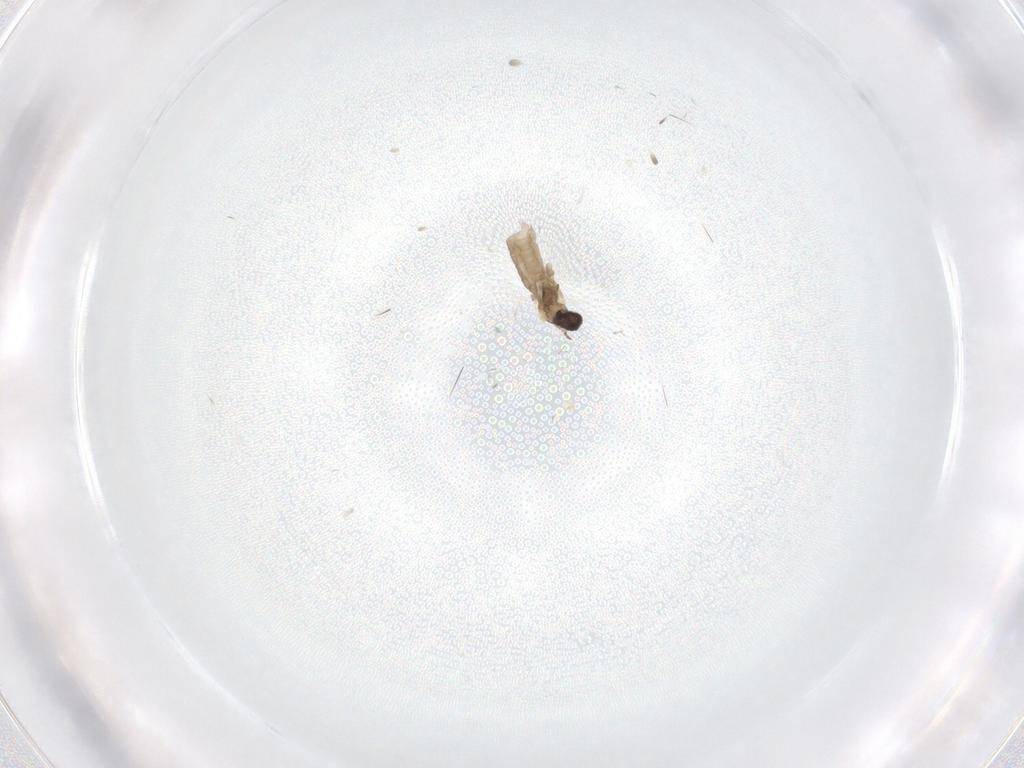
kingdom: Animalia
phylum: Arthropoda
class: Insecta
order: Diptera
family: Cecidomyiidae
